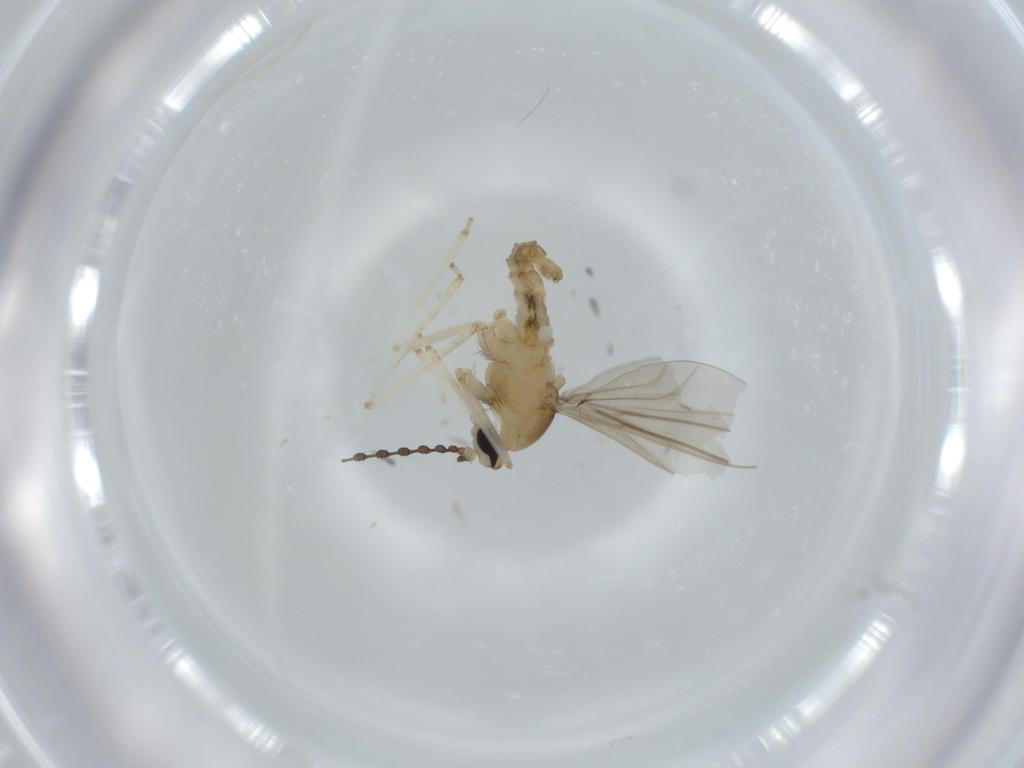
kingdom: Animalia
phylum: Arthropoda
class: Insecta
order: Diptera
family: Cecidomyiidae
